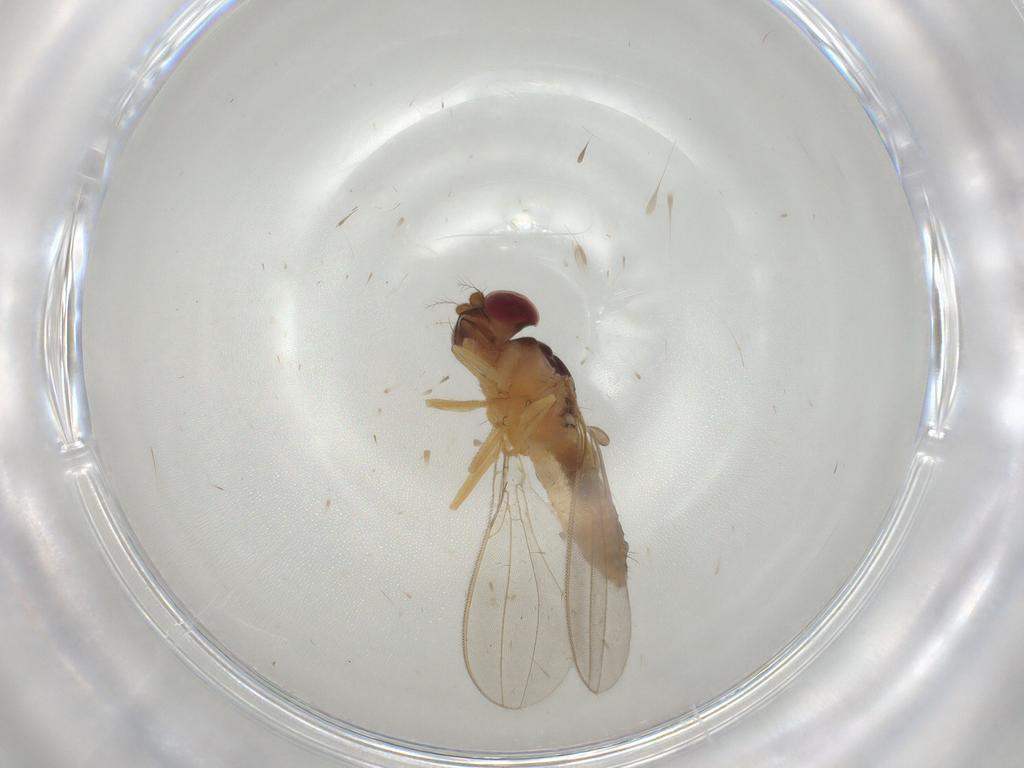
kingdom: Animalia
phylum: Arthropoda
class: Insecta
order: Diptera
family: Asteiidae
